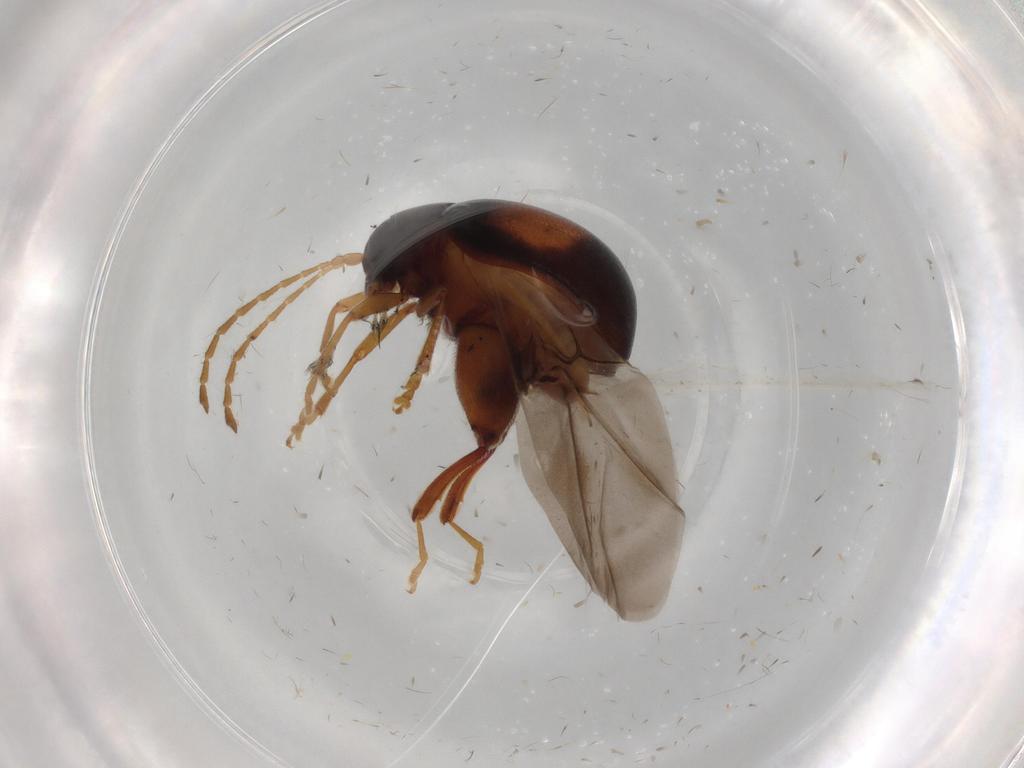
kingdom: Animalia
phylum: Arthropoda
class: Insecta
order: Coleoptera
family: Chrysomelidae
